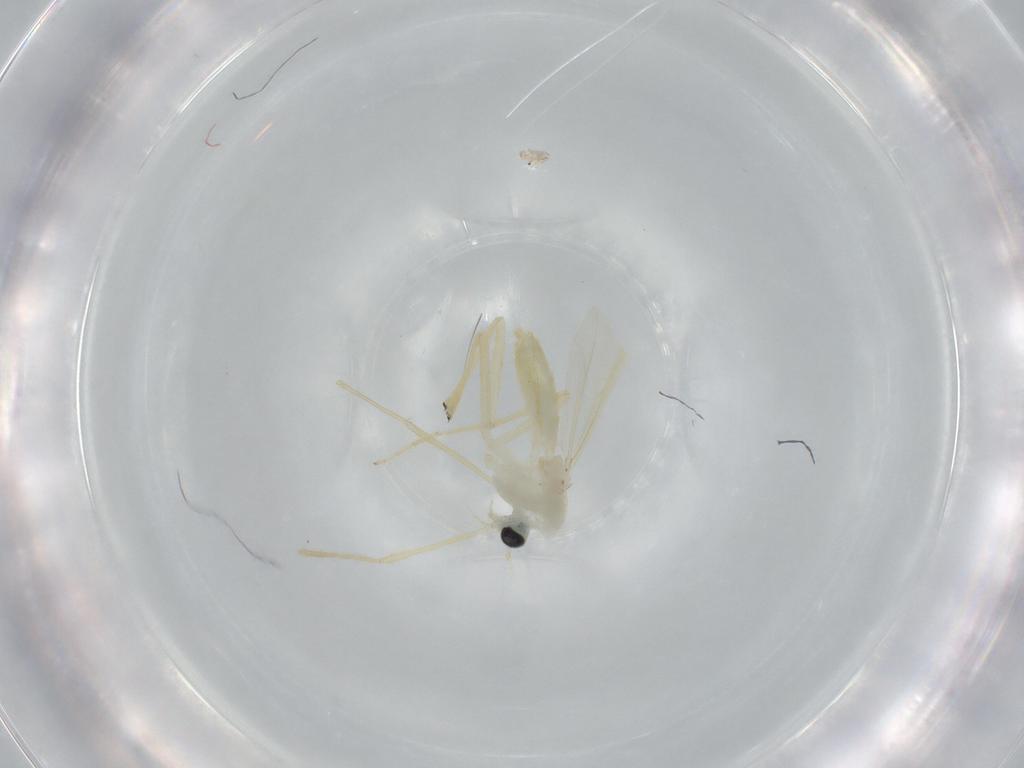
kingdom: Animalia
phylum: Arthropoda
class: Insecta
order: Diptera
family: Chironomidae
